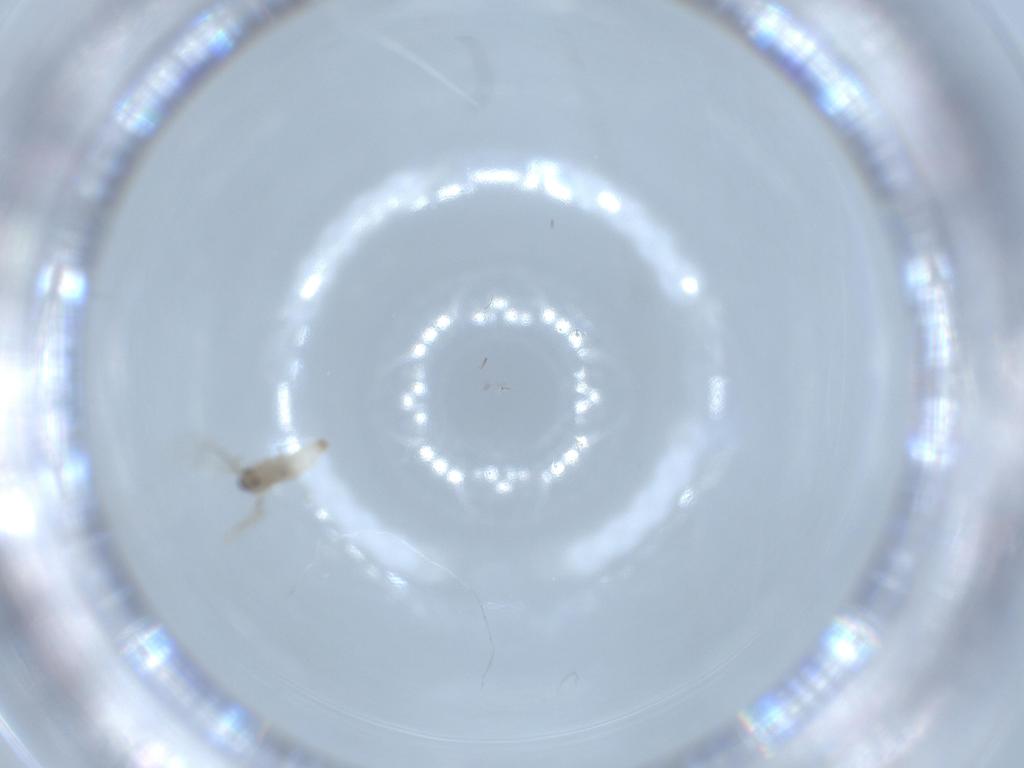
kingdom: Animalia
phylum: Arthropoda
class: Insecta
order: Diptera
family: Cecidomyiidae
